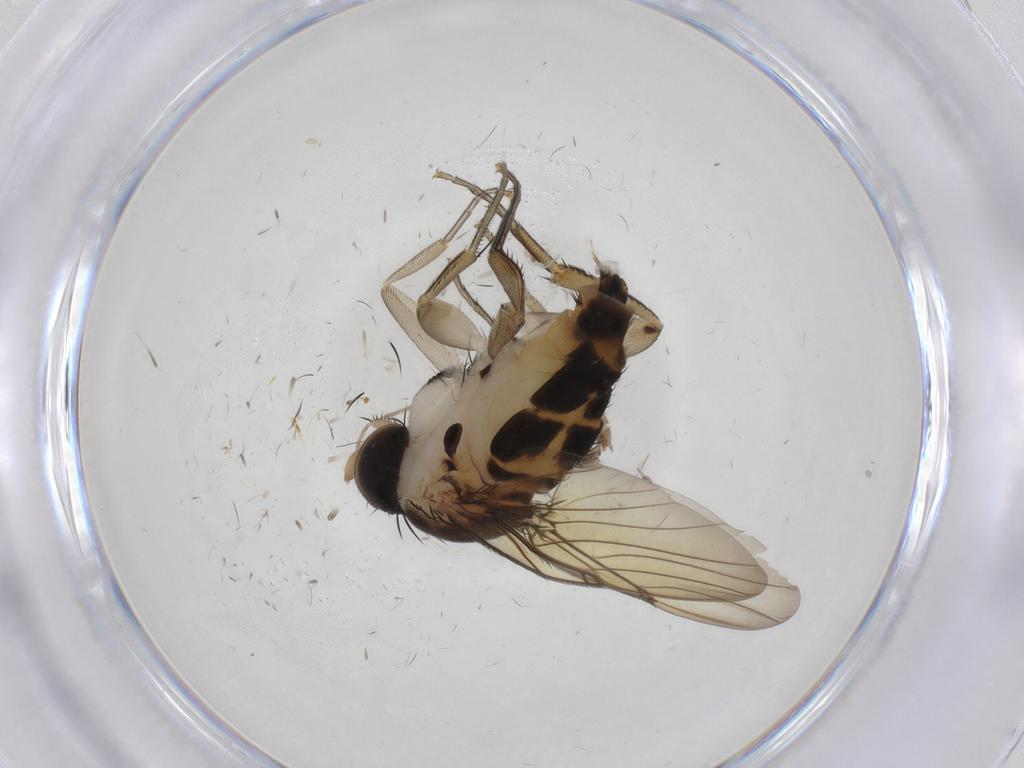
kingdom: Animalia
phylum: Arthropoda
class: Insecta
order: Diptera
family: Phoridae
